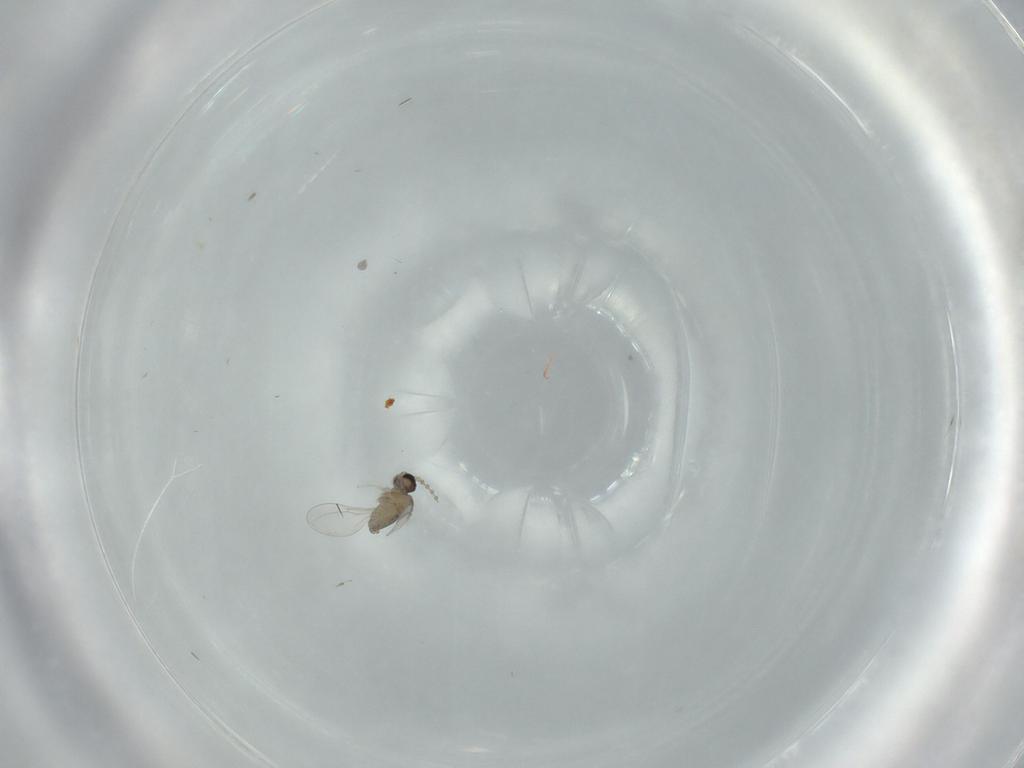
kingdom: Animalia
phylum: Arthropoda
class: Insecta
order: Diptera
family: Cecidomyiidae
